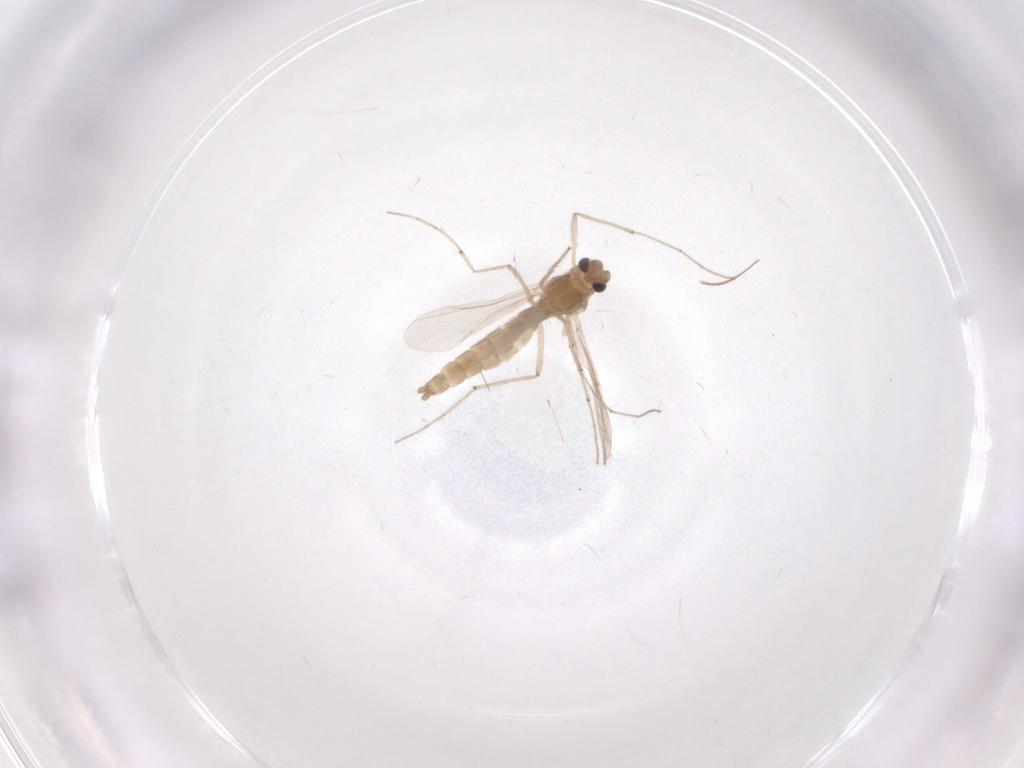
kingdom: Animalia
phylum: Arthropoda
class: Insecta
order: Diptera
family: Chironomidae
